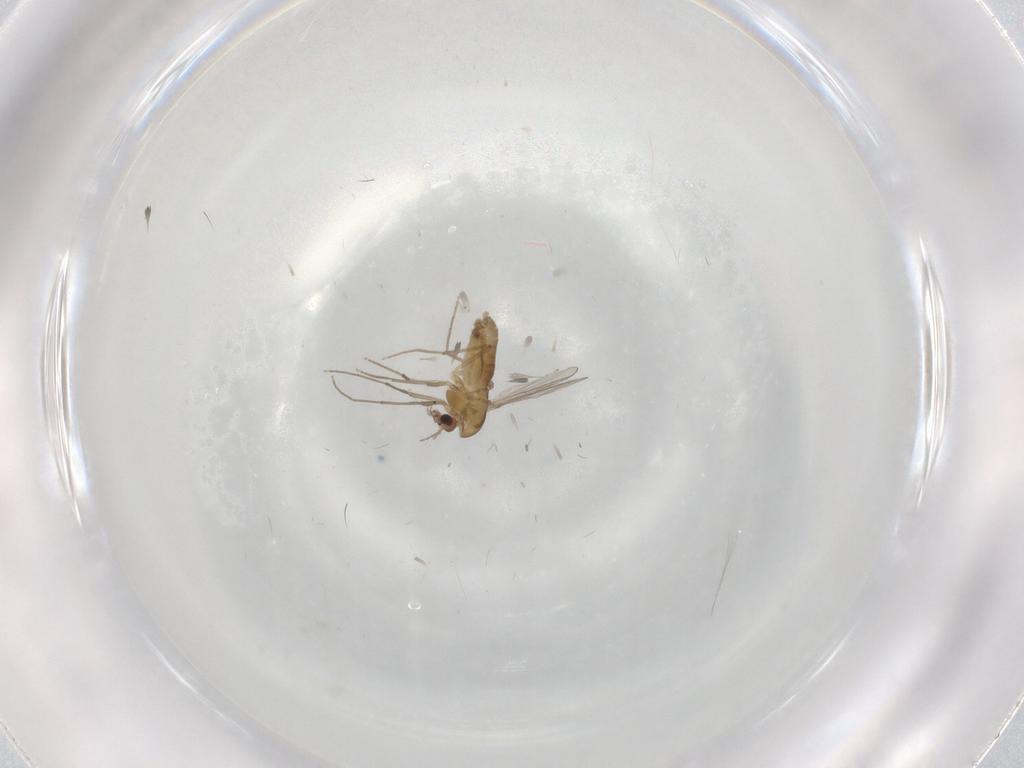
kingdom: Animalia
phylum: Arthropoda
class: Insecta
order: Diptera
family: Chironomidae
